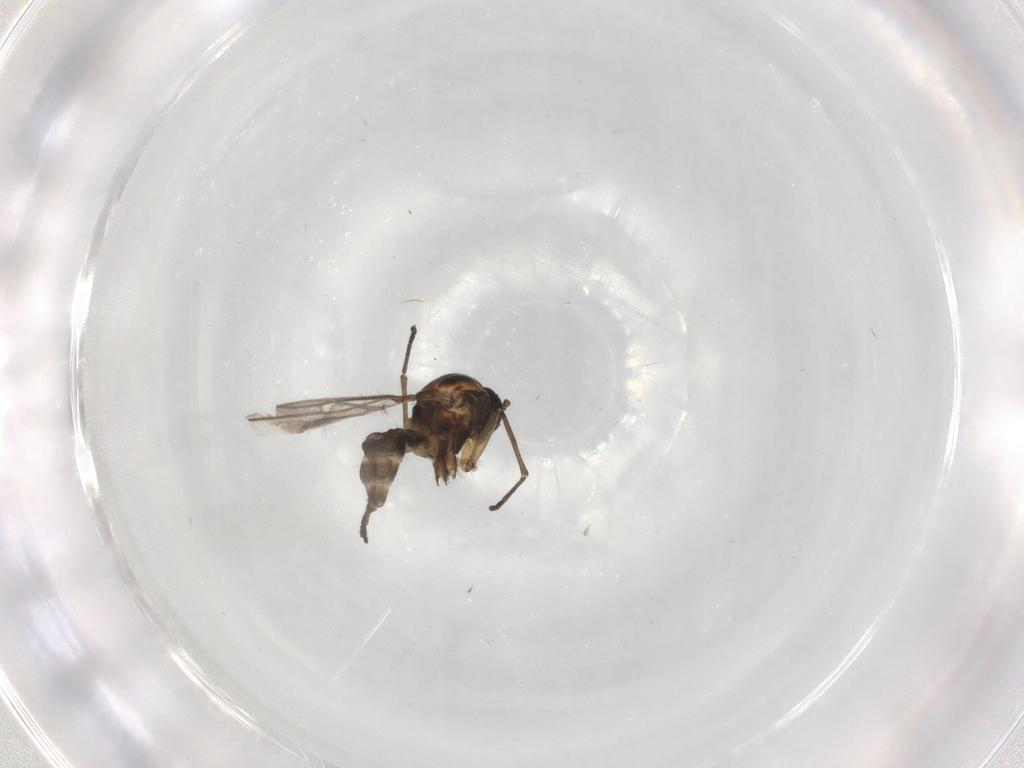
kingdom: Animalia
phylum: Arthropoda
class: Insecta
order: Diptera
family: Sciaridae
